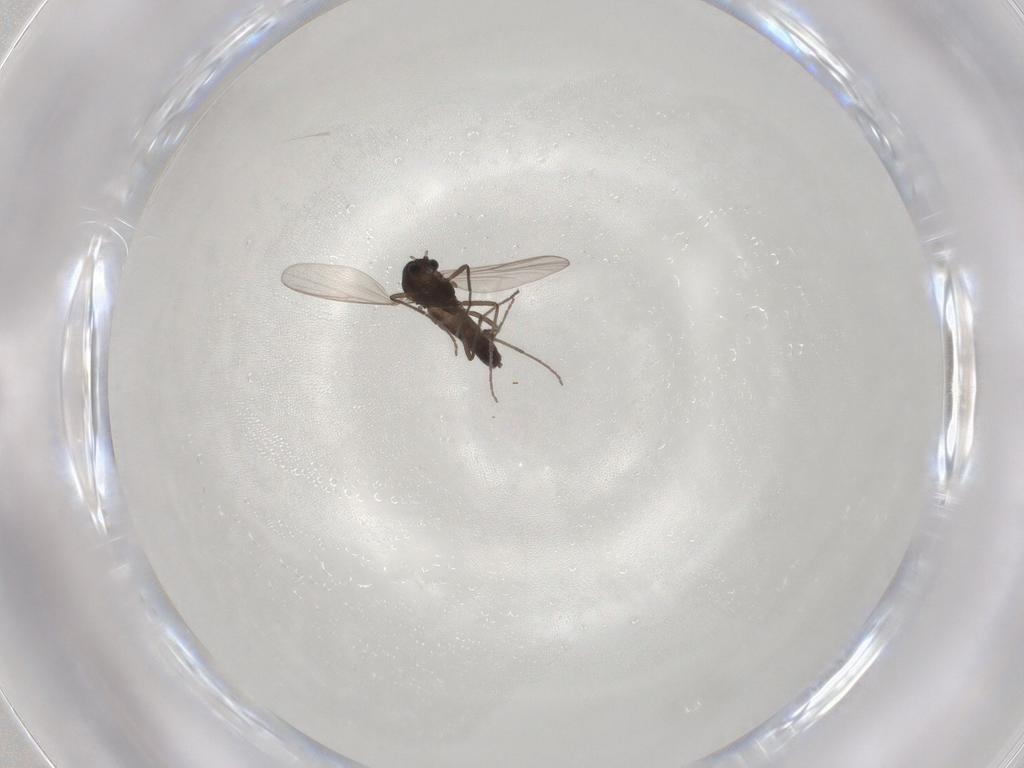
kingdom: Animalia
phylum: Arthropoda
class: Insecta
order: Diptera
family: Chironomidae
